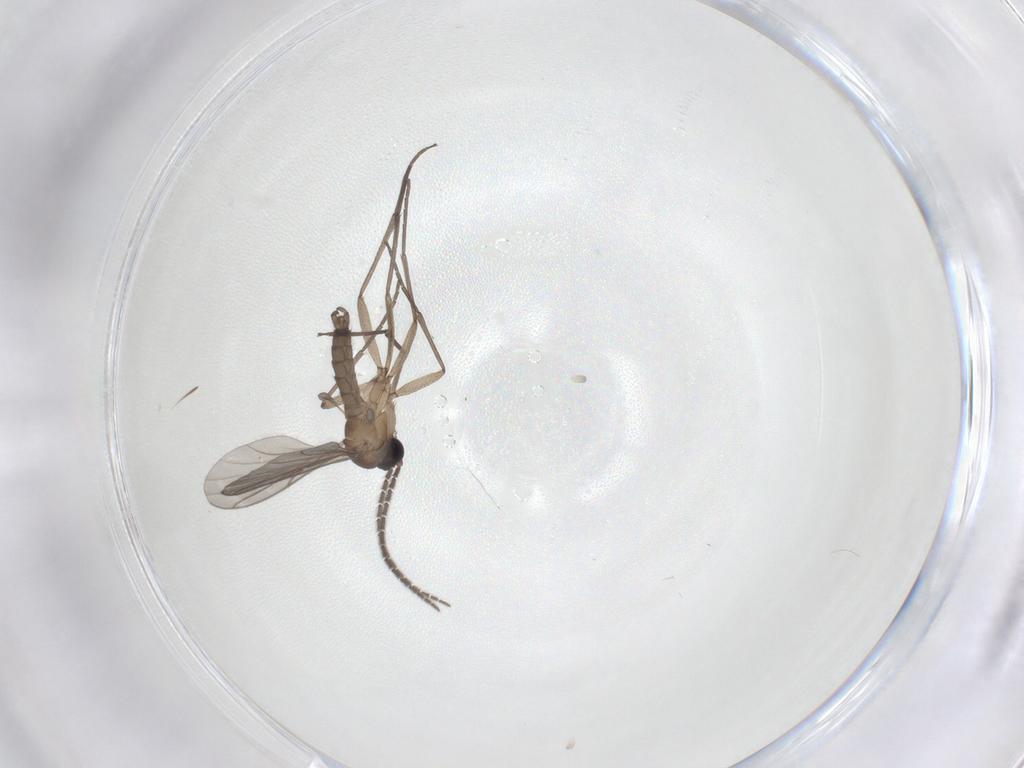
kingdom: Animalia
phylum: Arthropoda
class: Insecta
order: Diptera
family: Sciaridae
